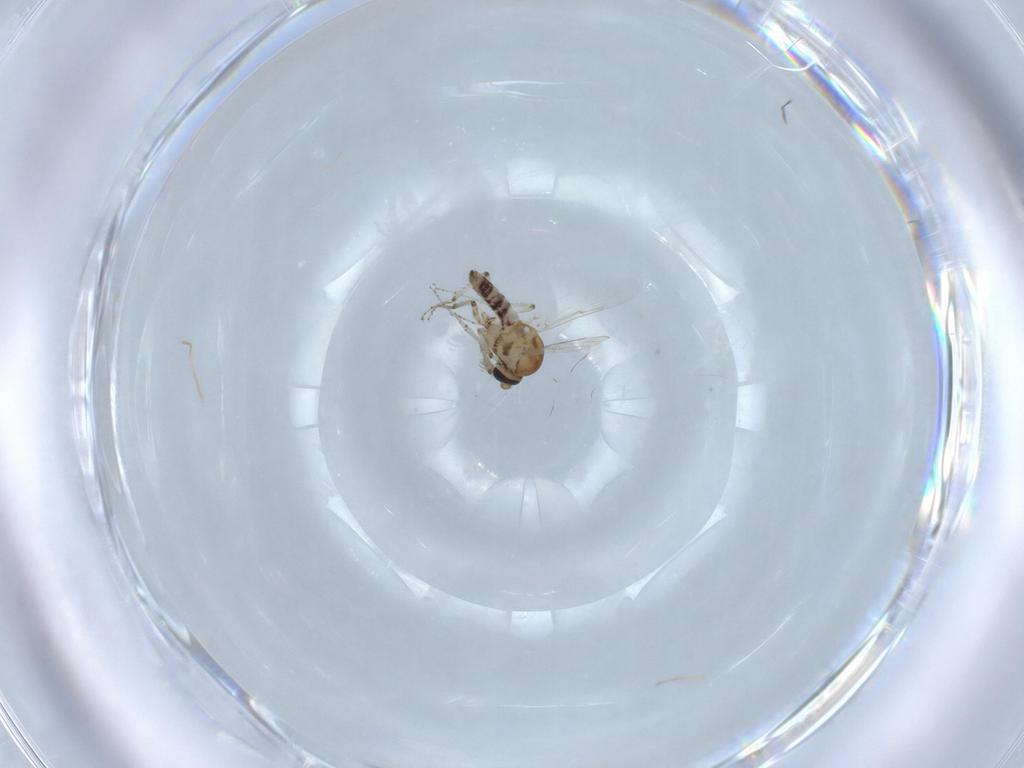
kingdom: Animalia
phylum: Arthropoda
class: Insecta
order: Diptera
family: Ceratopogonidae
